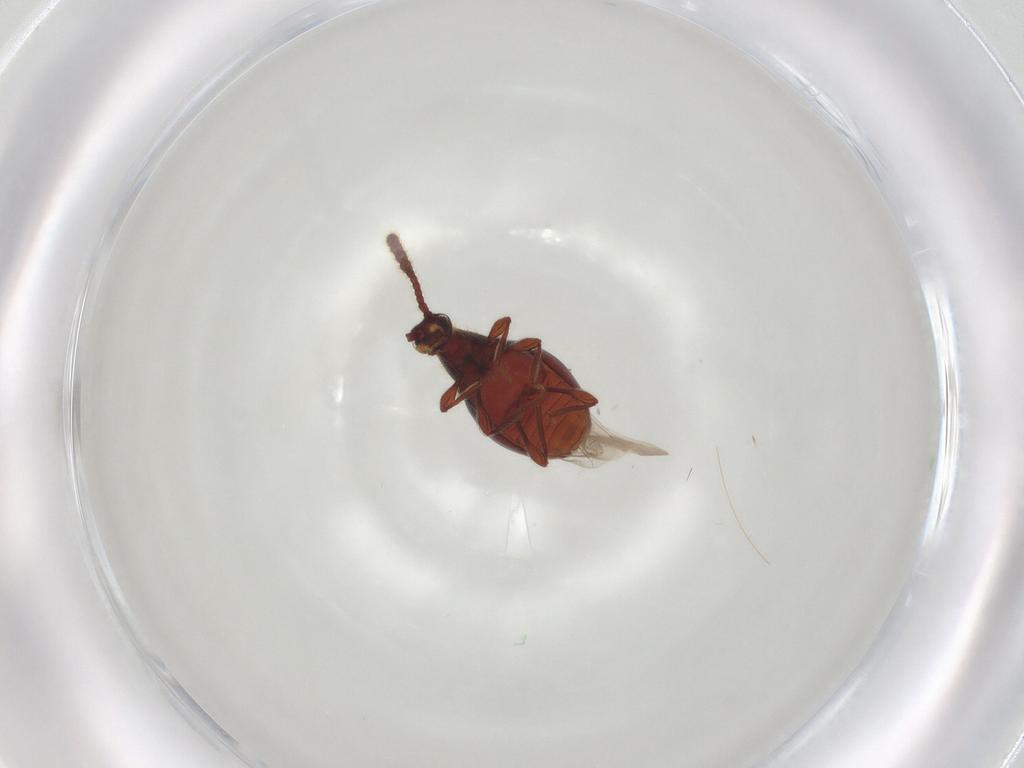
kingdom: Animalia
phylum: Arthropoda
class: Insecta
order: Coleoptera
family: Staphylinidae
